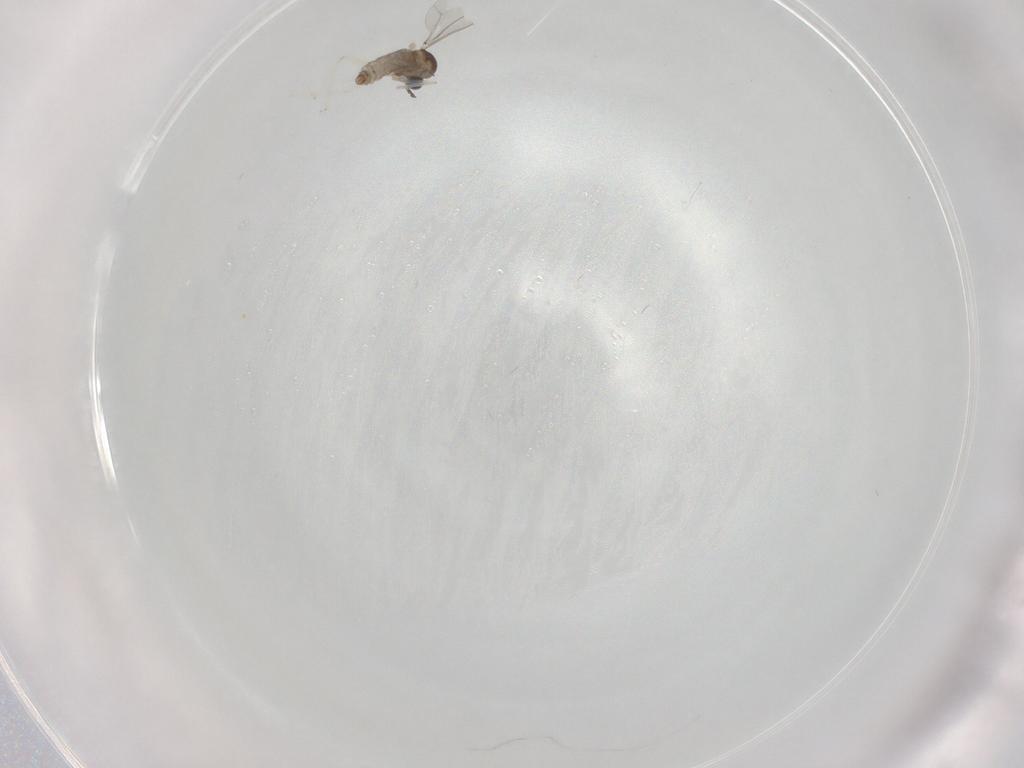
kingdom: Animalia
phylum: Arthropoda
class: Insecta
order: Diptera
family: Cecidomyiidae
